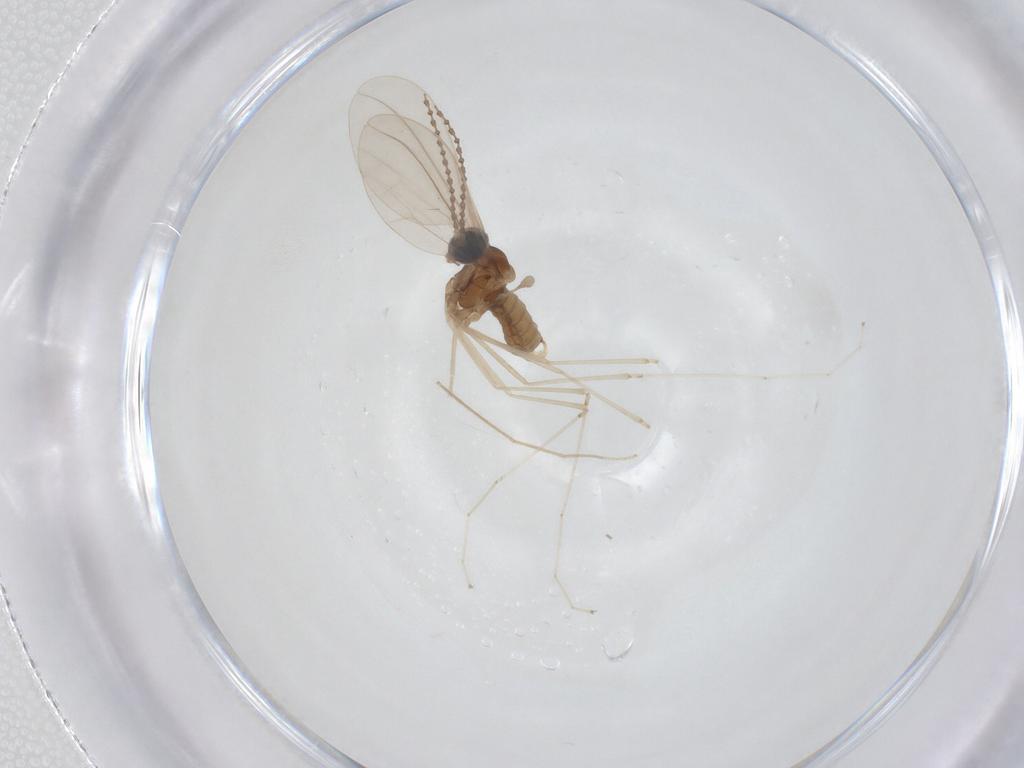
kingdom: Animalia
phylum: Arthropoda
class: Insecta
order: Diptera
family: Cecidomyiidae
